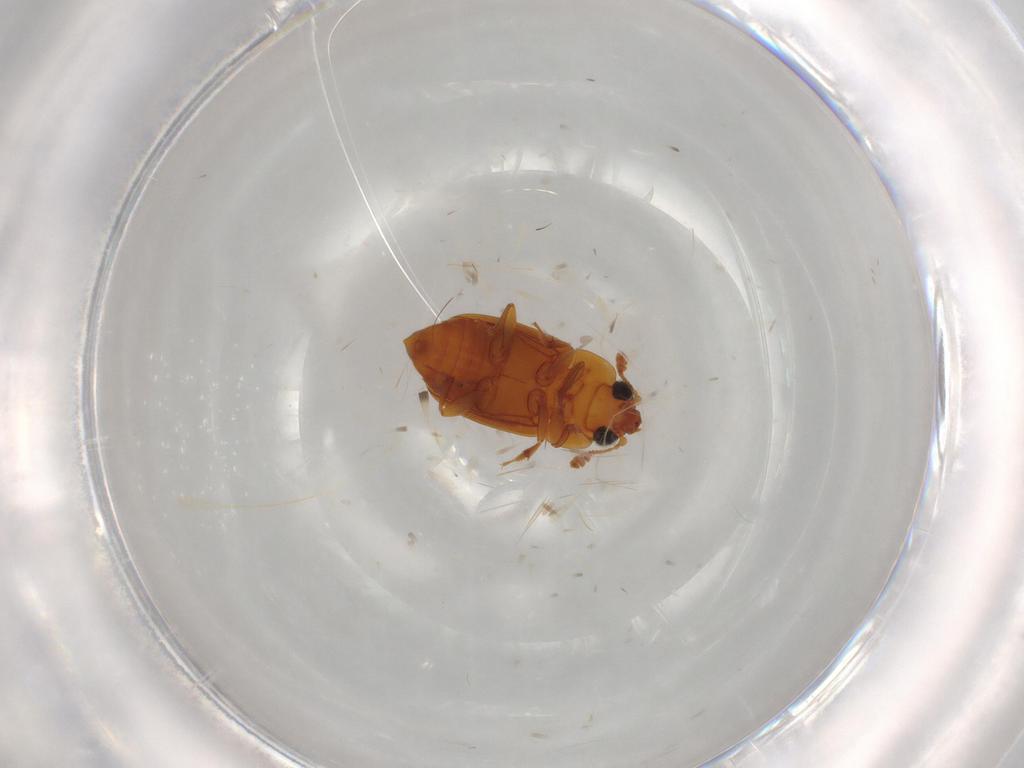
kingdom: Animalia
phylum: Arthropoda
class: Insecta
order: Coleoptera
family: Nitidulidae
